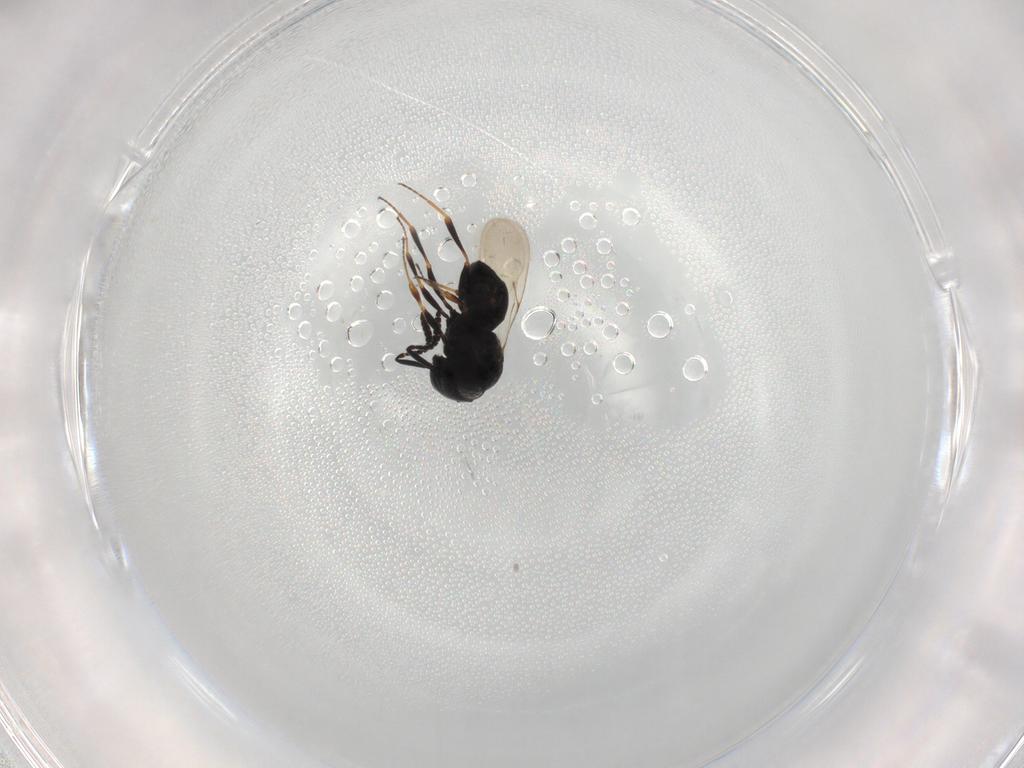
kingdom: Animalia
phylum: Arthropoda
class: Insecta
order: Hymenoptera
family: Scelionidae
